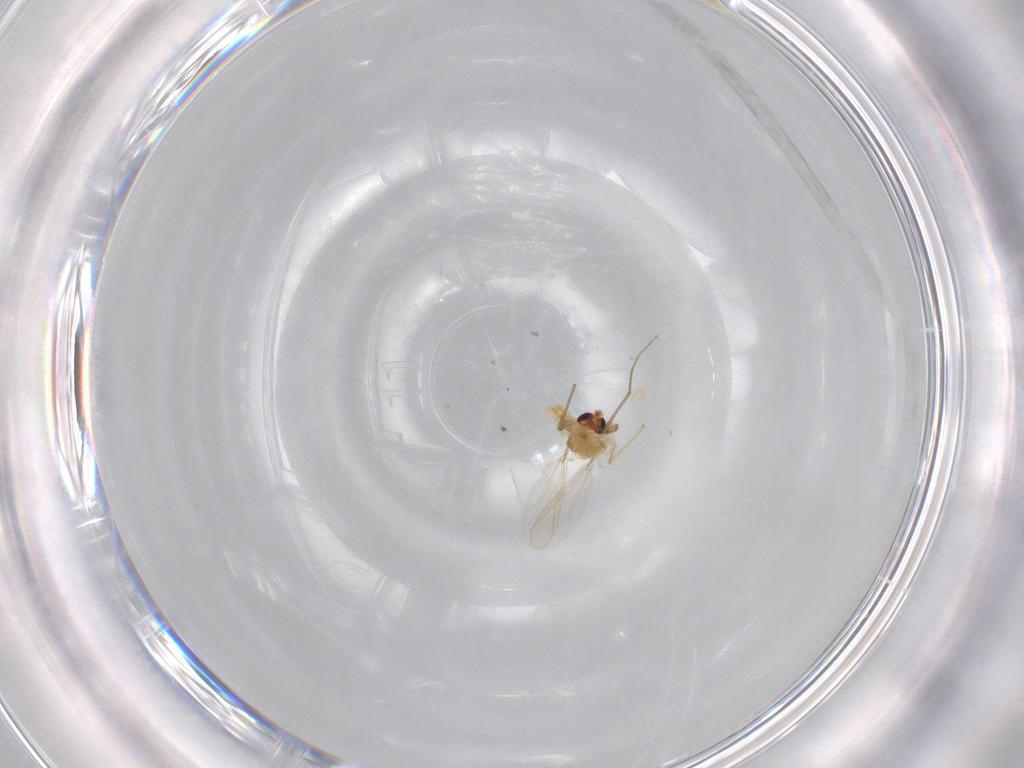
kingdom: Animalia
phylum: Arthropoda
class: Insecta
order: Diptera
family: Chironomidae
